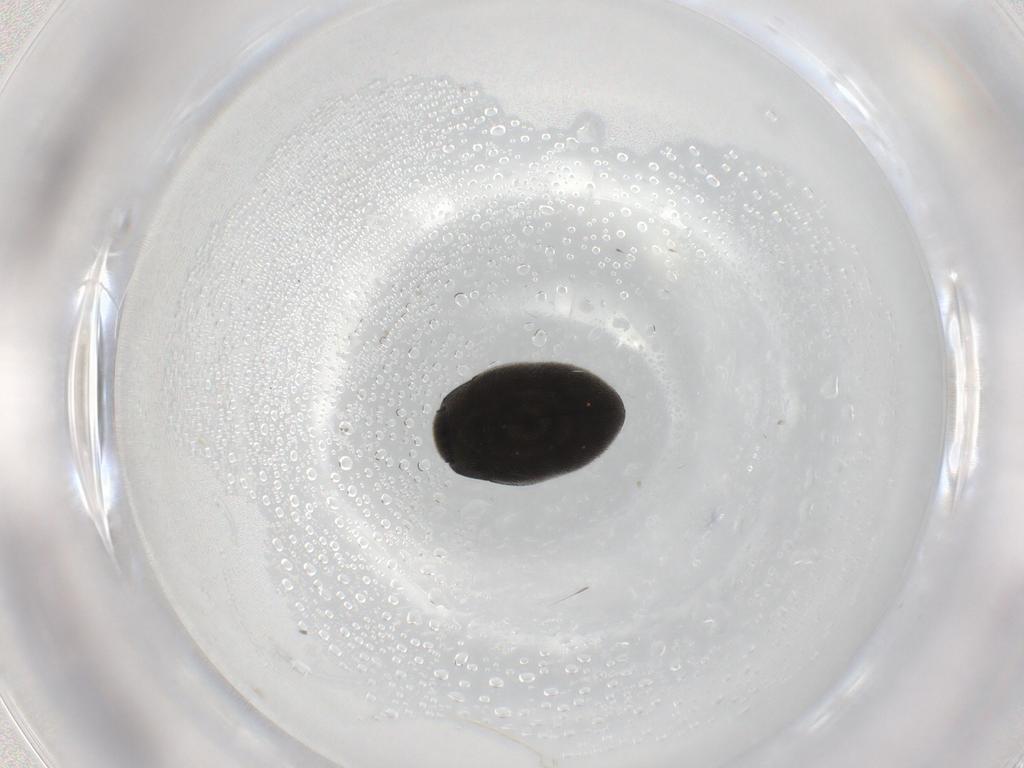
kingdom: Animalia
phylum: Arthropoda
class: Insecta
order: Coleoptera
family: Limnichidae
